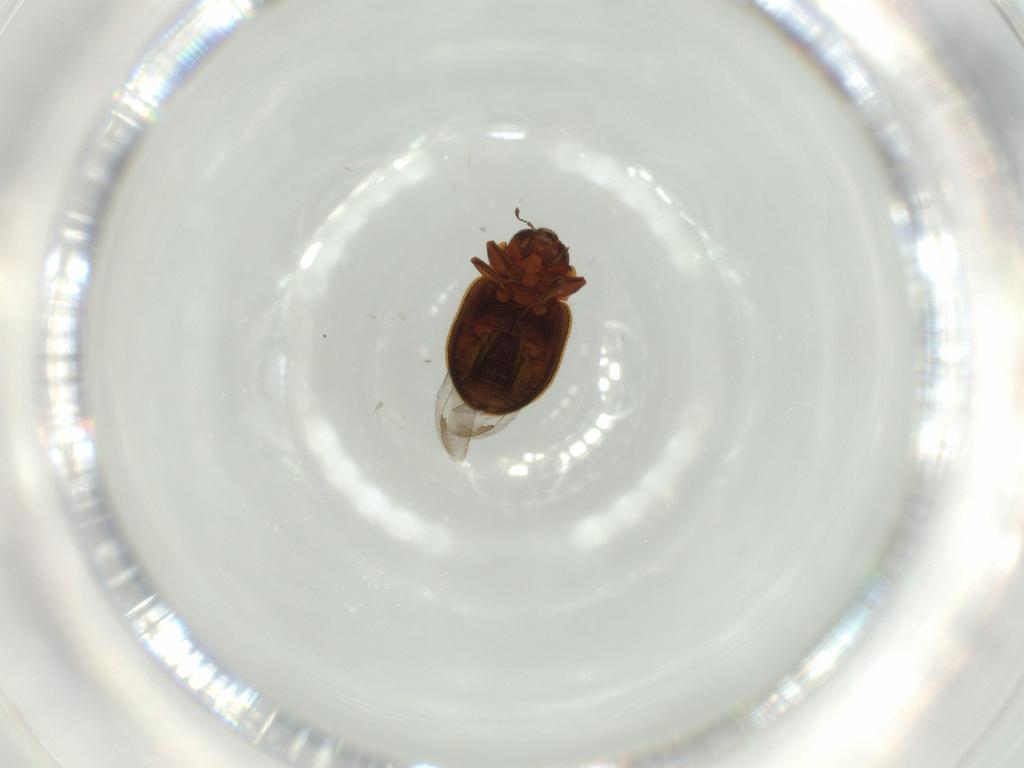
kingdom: Animalia
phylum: Arthropoda
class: Insecta
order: Coleoptera
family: Coccinellidae
